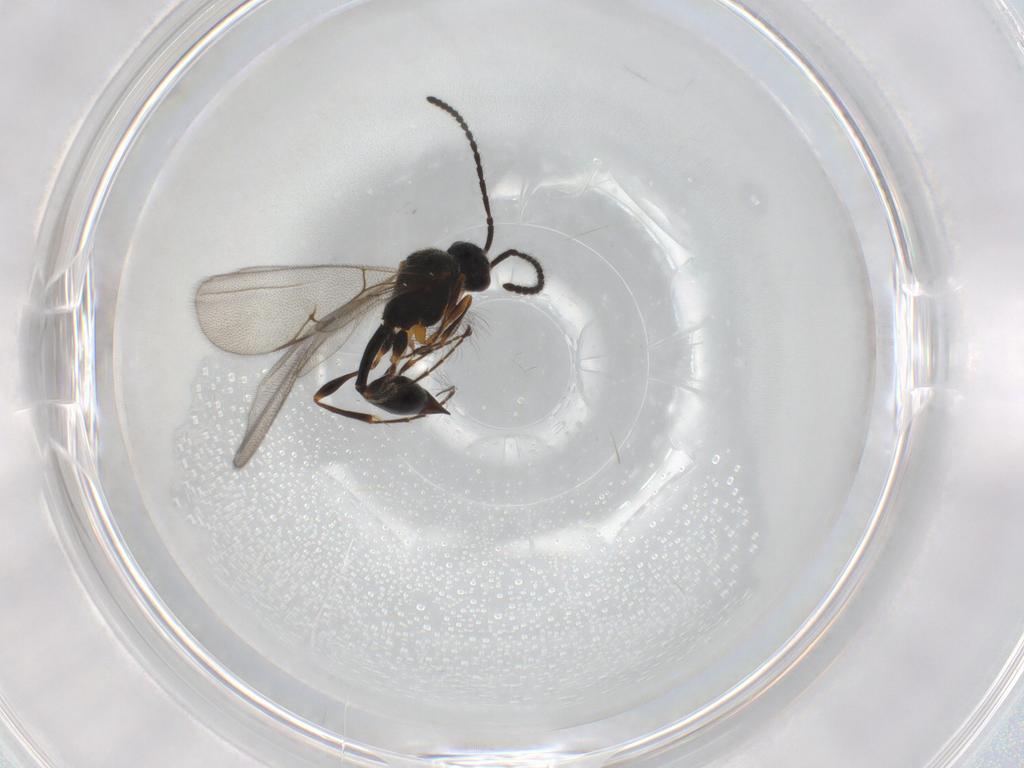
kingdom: Animalia
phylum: Arthropoda
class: Insecta
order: Hymenoptera
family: Diapriidae
